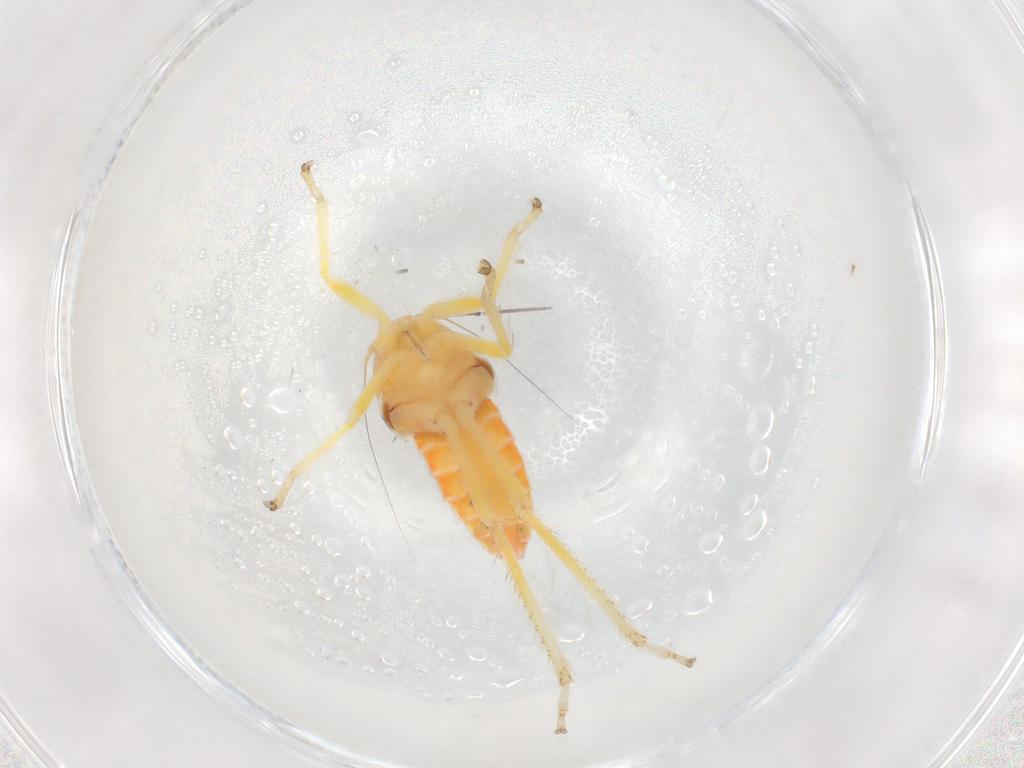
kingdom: Animalia
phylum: Arthropoda
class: Insecta
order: Hemiptera
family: Cicadellidae
